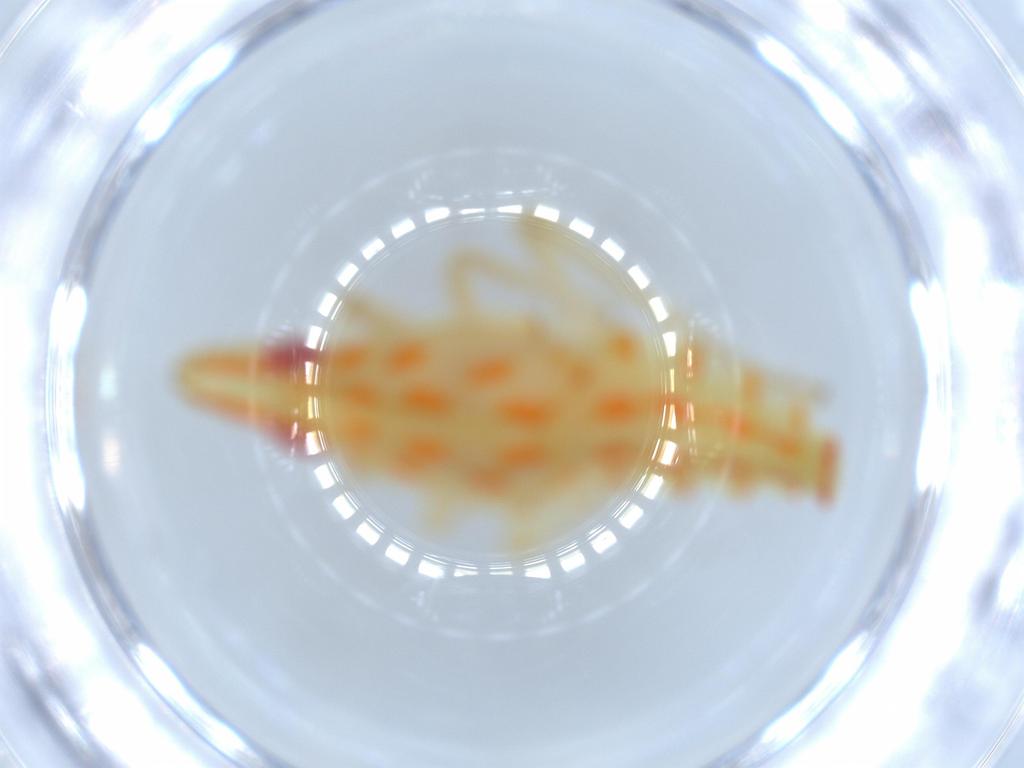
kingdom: Animalia
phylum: Arthropoda
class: Insecta
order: Hemiptera
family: Tropiduchidae
